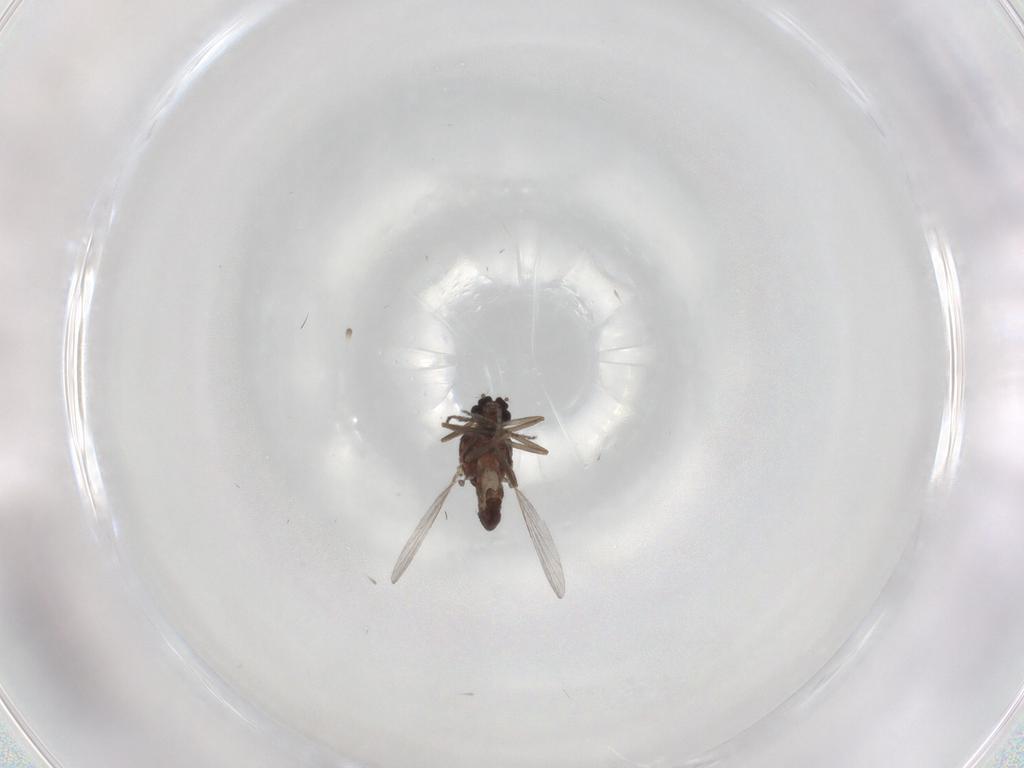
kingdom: Animalia
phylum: Arthropoda
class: Insecta
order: Diptera
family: Ceratopogonidae
